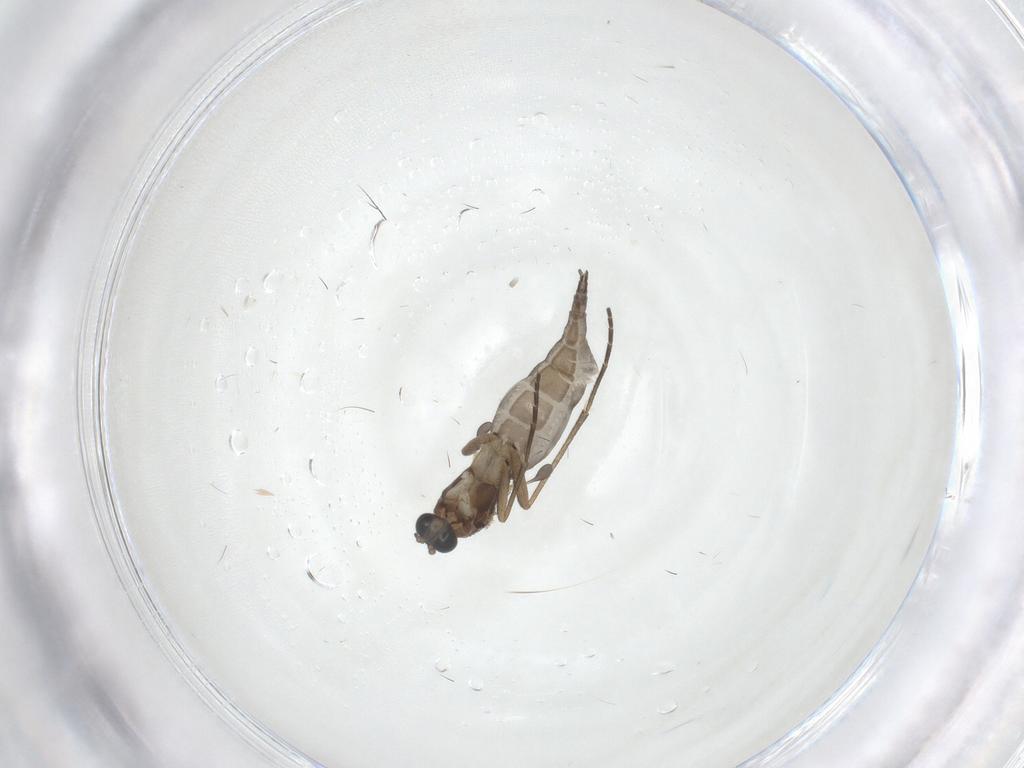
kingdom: Animalia
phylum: Arthropoda
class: Insecta
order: Diptera
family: Sciaridae
